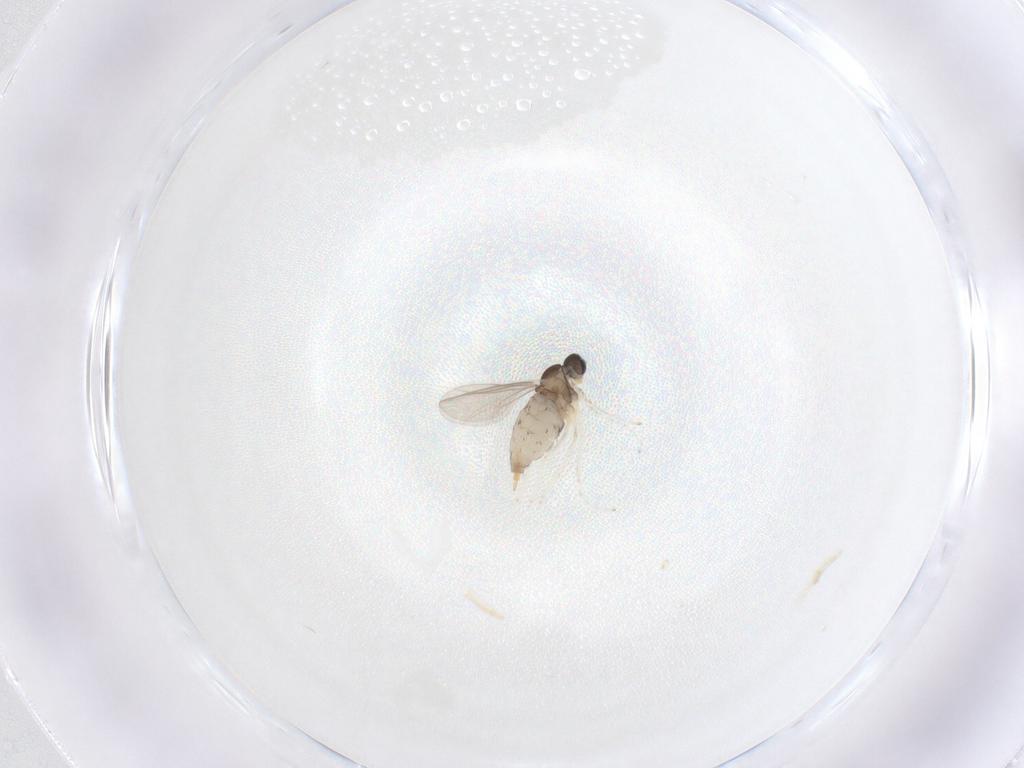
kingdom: Animalia
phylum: Arthropoda
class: Insecta
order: Diptera
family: Cecidomyiidae
